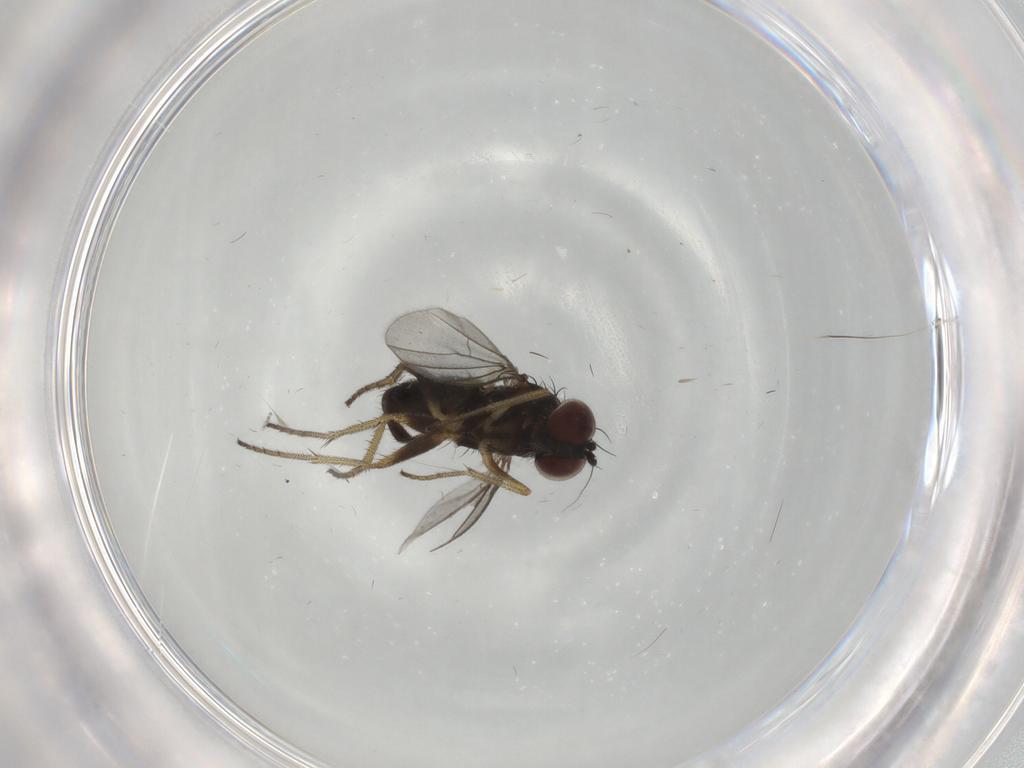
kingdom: Animalia
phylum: Arthropoda
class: Insecta
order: Diptera
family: Dolichopodidae
